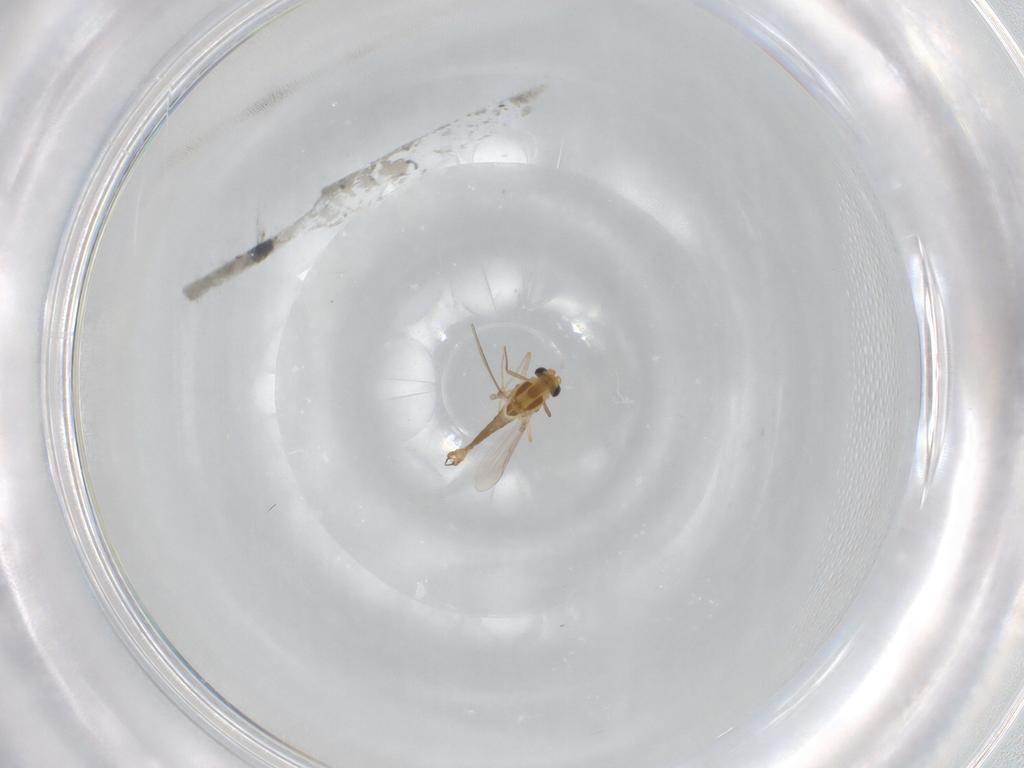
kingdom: Animalia
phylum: Arthropoda
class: Insecta
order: Diptera
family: Chironomidae
